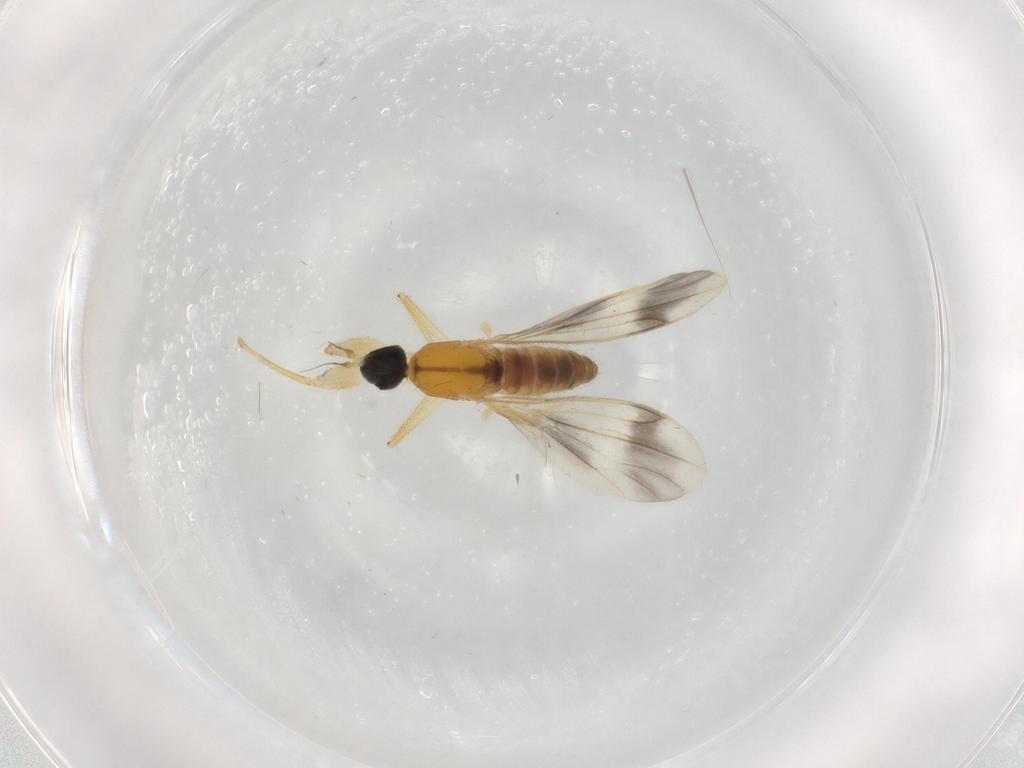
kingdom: Animalia
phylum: Arthropoda
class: Insecta
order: Diptera
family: Empididae
